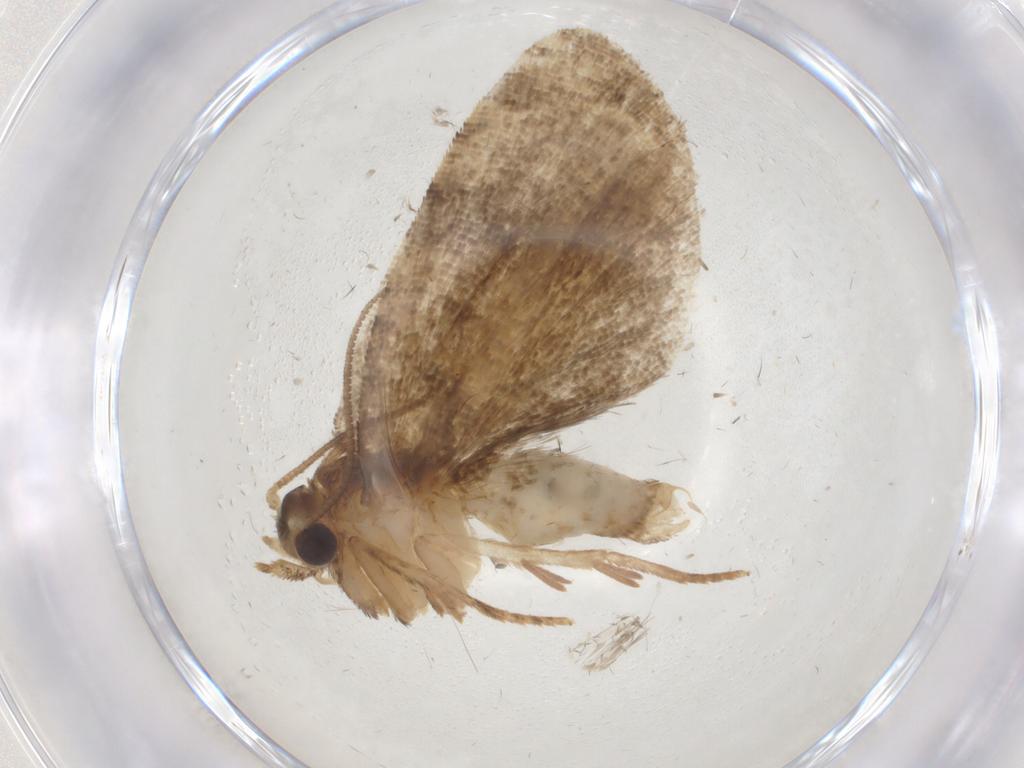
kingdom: Animalia
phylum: Arthropoda
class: Insecta
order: Lepidoptera
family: Tortricidae
